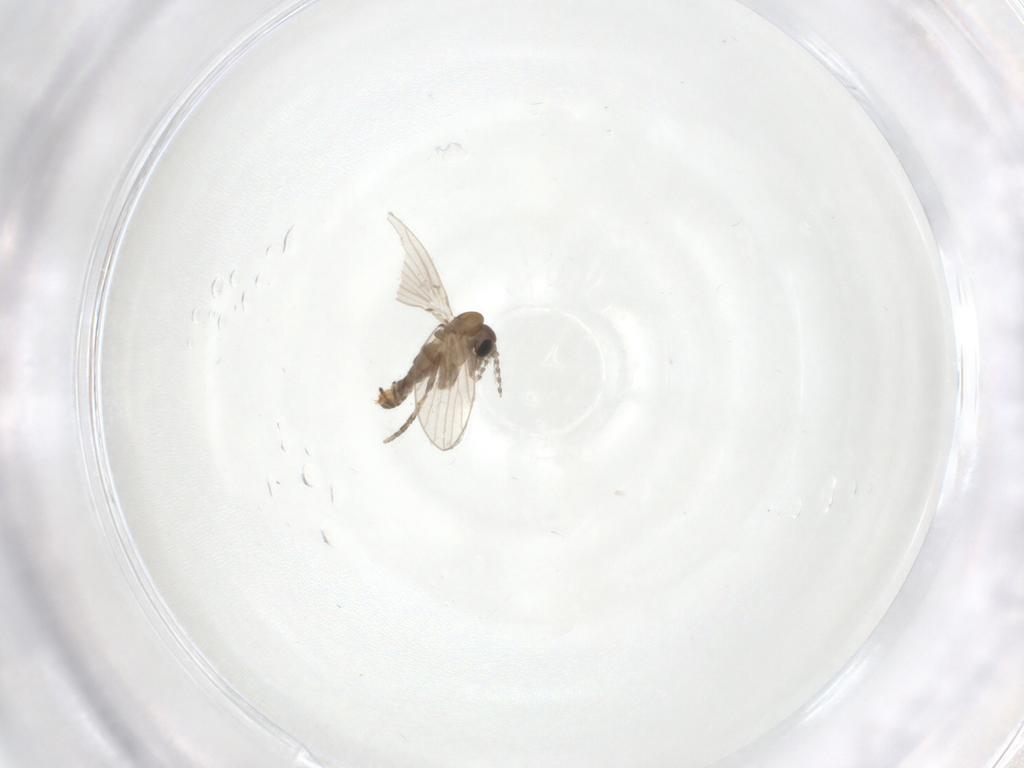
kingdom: Animalia
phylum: Arthropoda
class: Insecta
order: Diptera
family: Psychodidae
